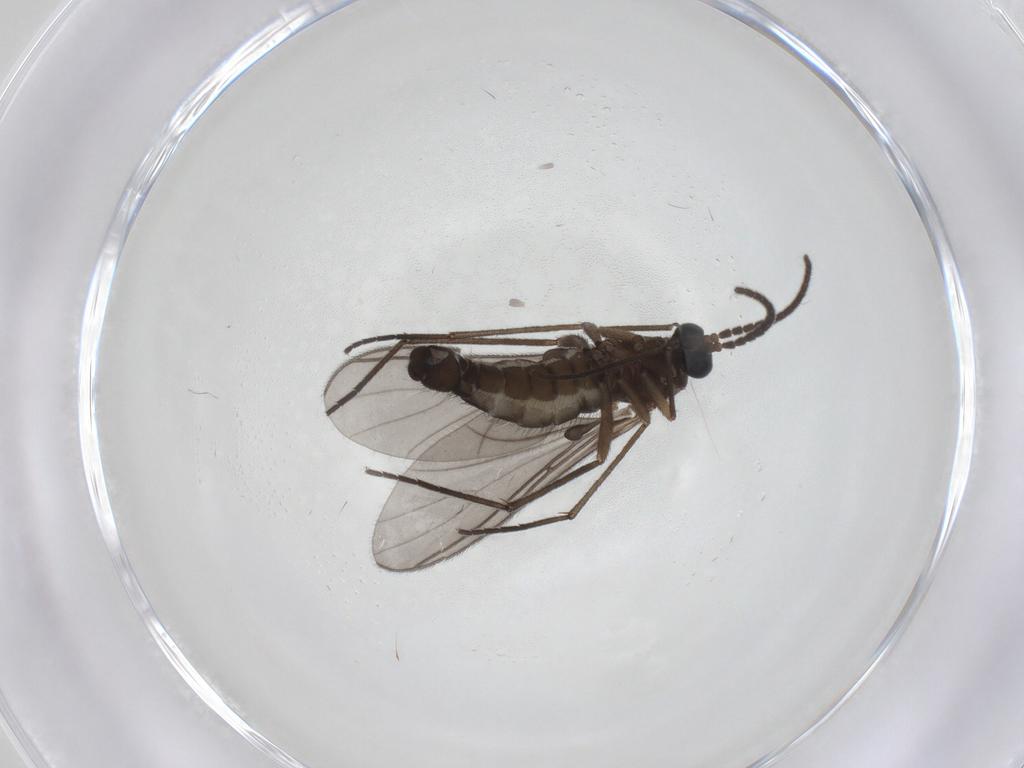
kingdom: Animalia
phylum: Arthropoda
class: Insecta
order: Diptera
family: Sciaridae
